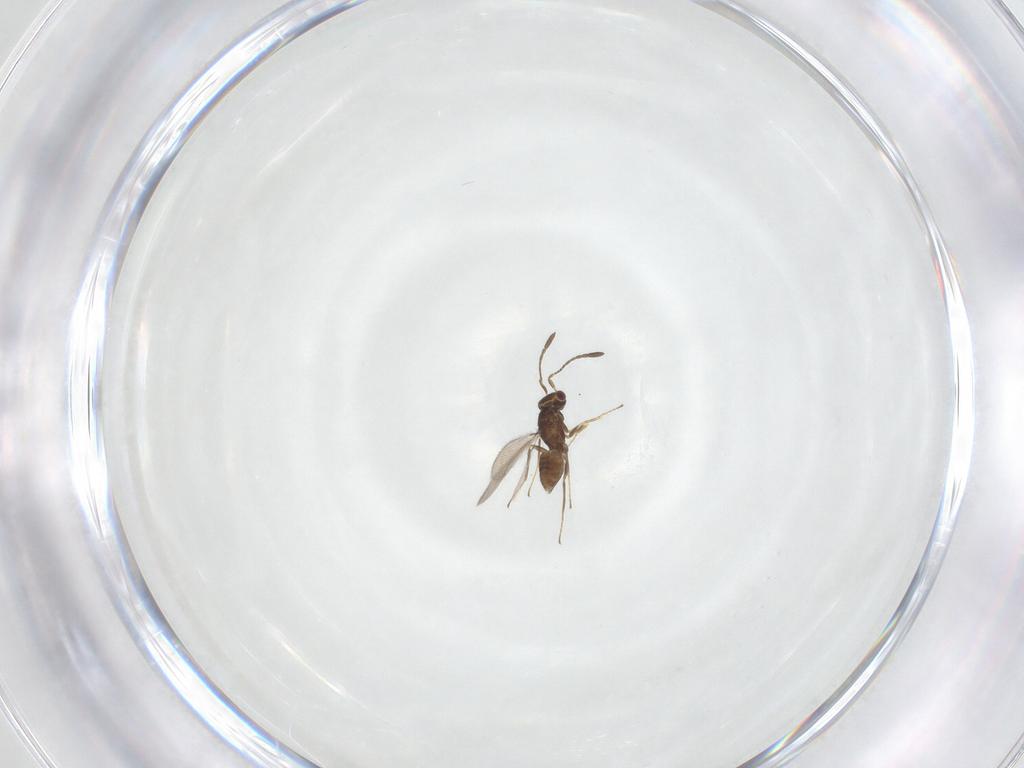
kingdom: Animalia
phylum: Arthropoda
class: Insecta
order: Hymenoptera
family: Mymaridae
